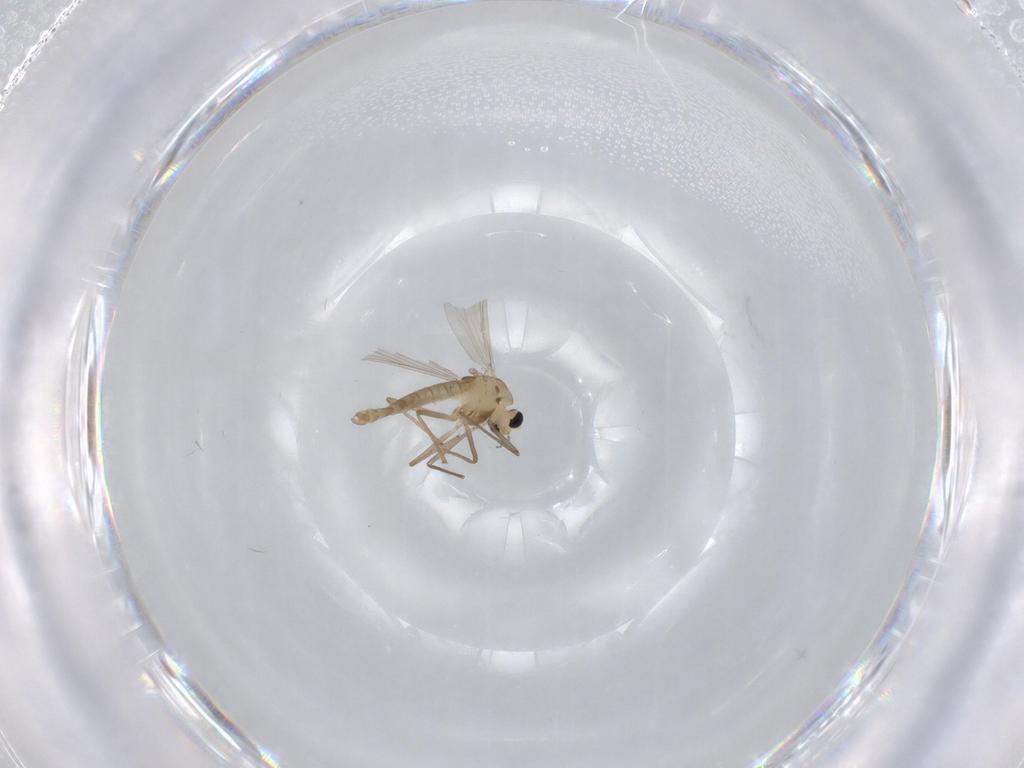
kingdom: Animalia
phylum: Arthropoda
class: Insecta
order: Diptera
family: Chironomidae
